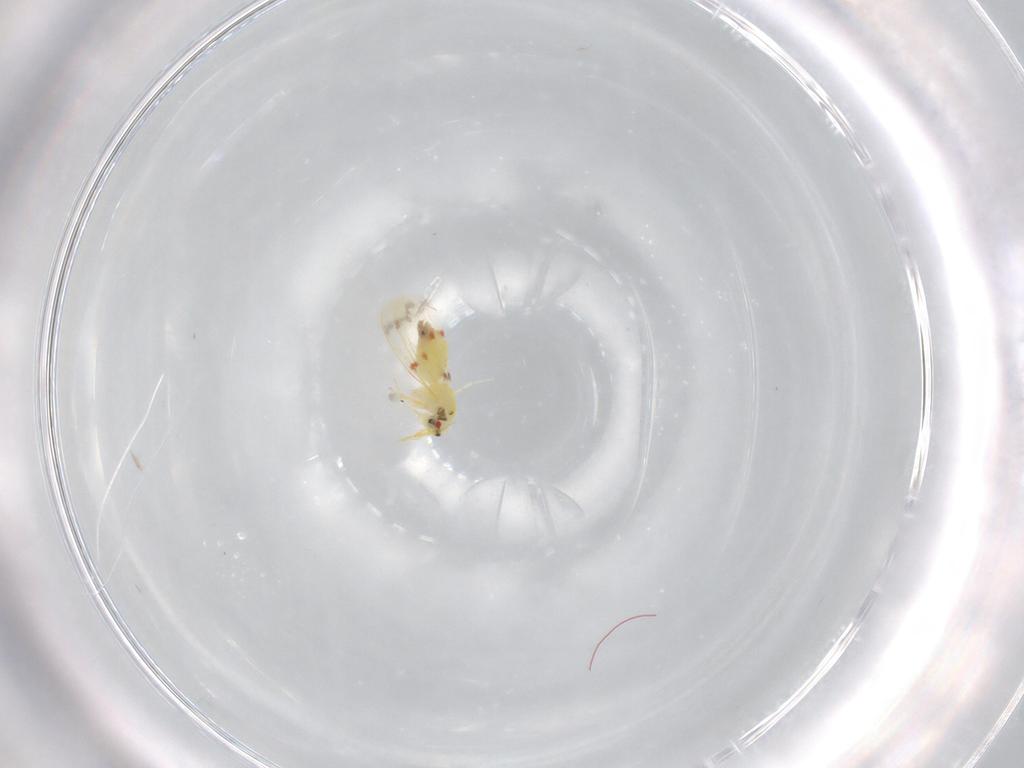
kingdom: Animalia
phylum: Arthropoda
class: Insecta
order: Hemiptera
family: Aleyrodidae
